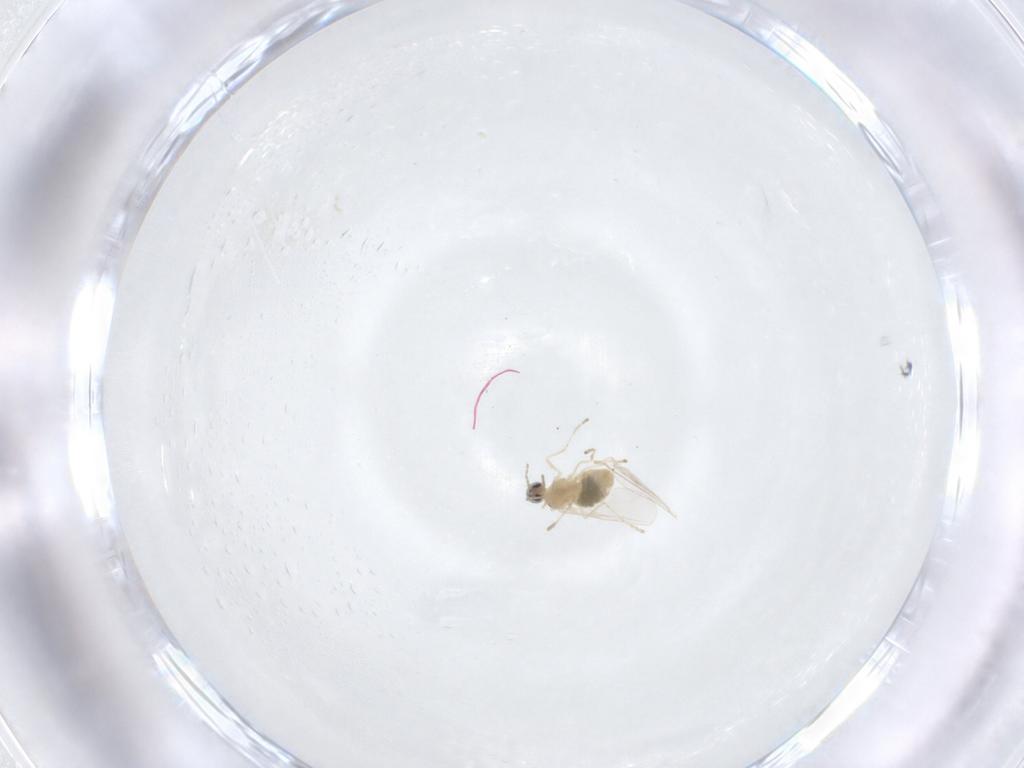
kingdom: Animalia
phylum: Arthropoda
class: Insecta
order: Diptera
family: Cecidomyiidae
